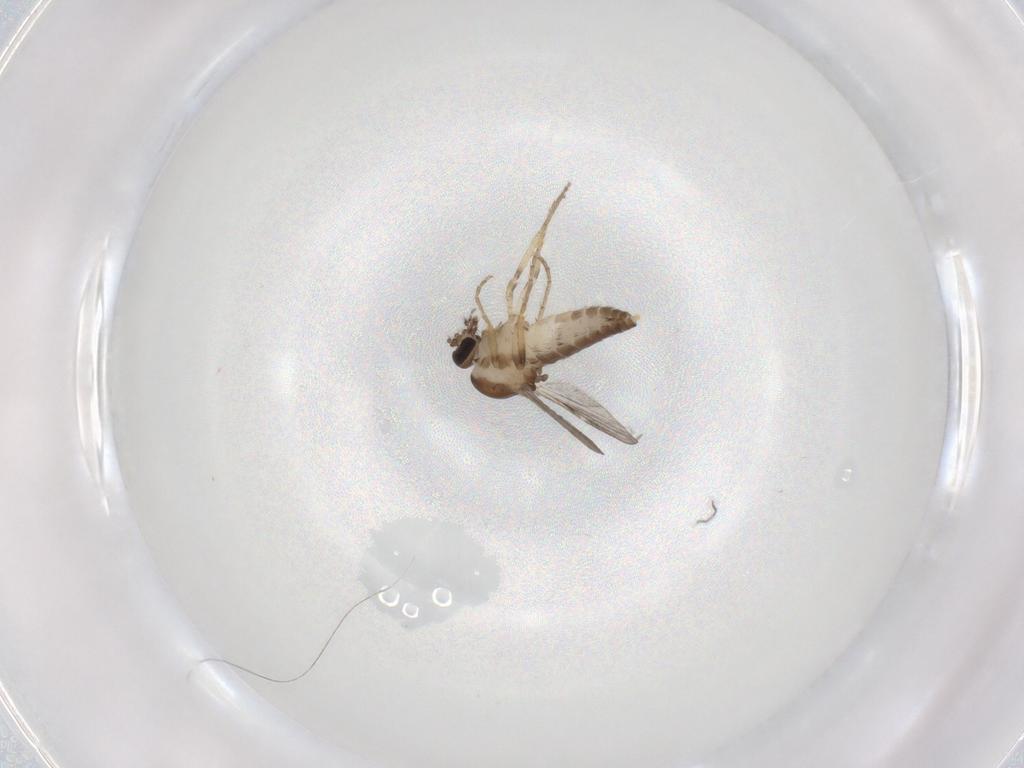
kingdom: Animalia
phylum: Arthropoda
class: Insecta
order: Diptera
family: Ceratopogonidae
